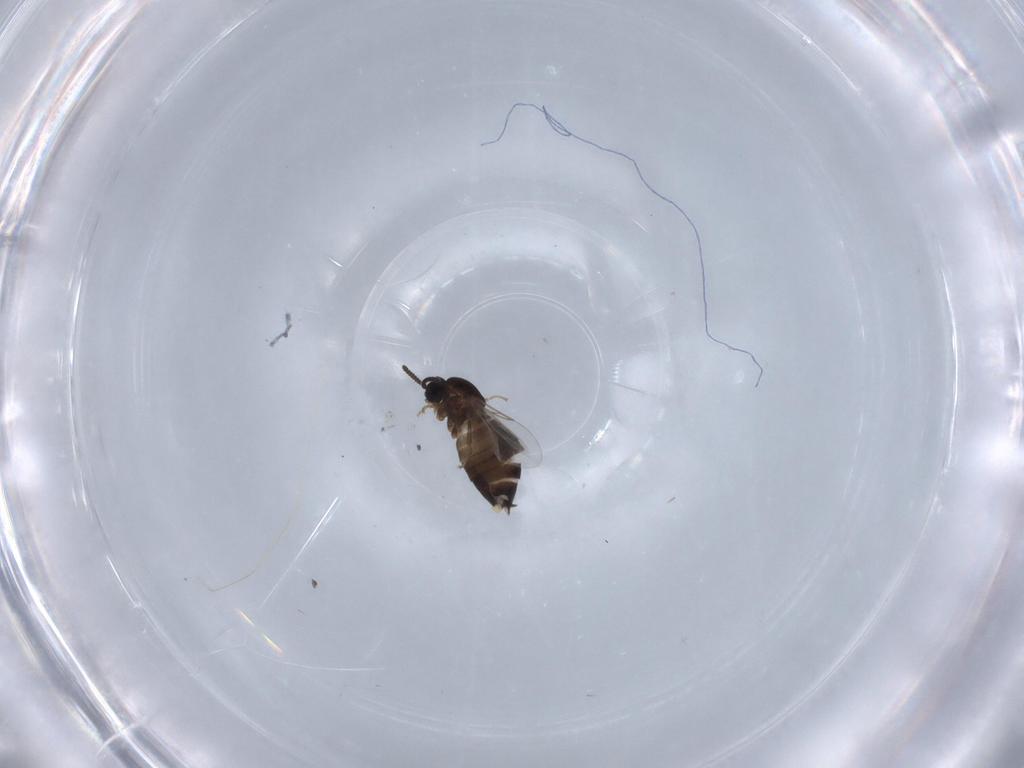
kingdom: Animalia
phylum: Arthropoda
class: Insecta
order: Diptera
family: Scatopsidae
